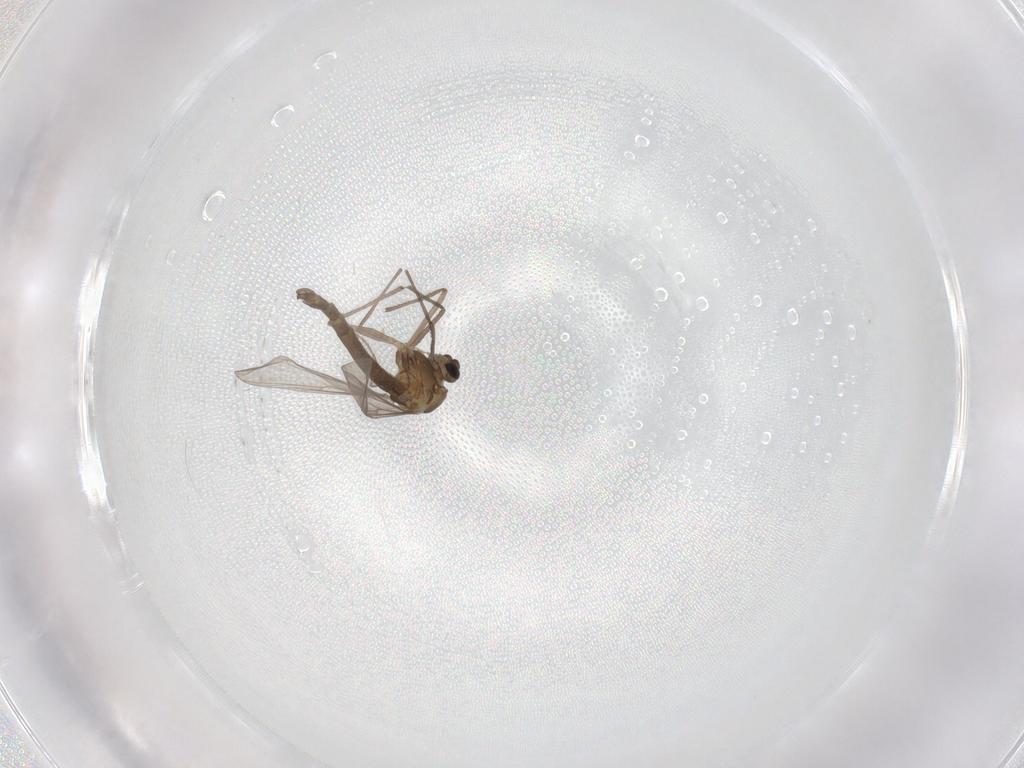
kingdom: Animalia
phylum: Arthropoda
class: Insecta
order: Diptera
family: Chironomidae
